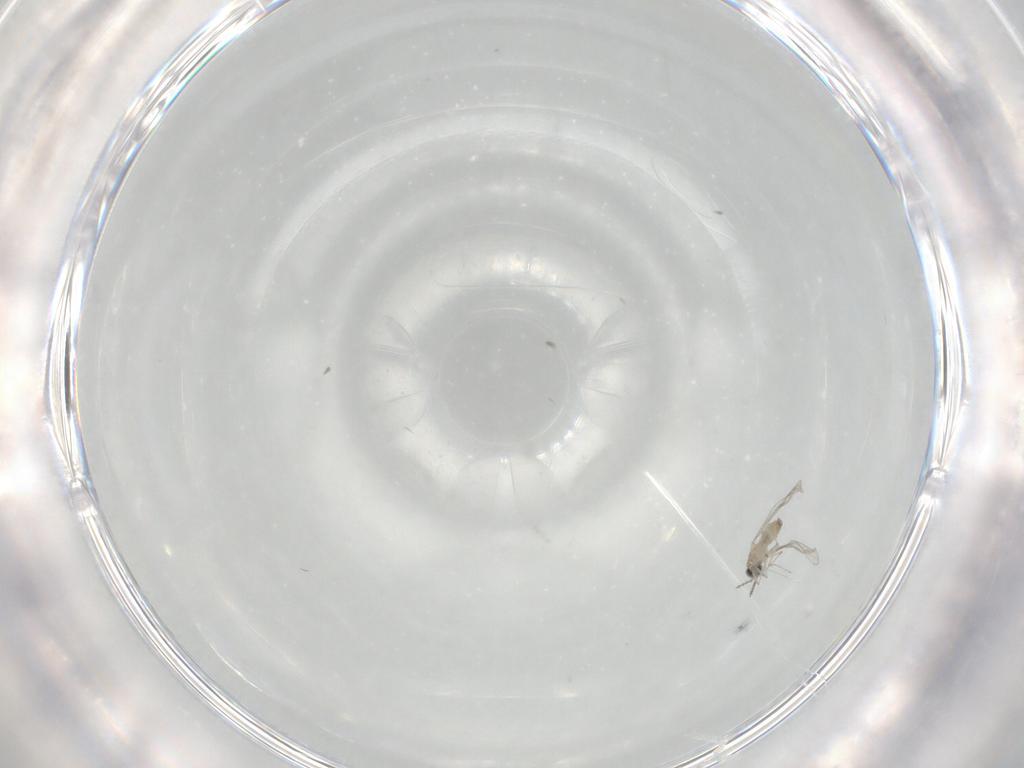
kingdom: Animalia
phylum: Arthropoda
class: Insecta
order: Diptera
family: Cecidomyiidae
